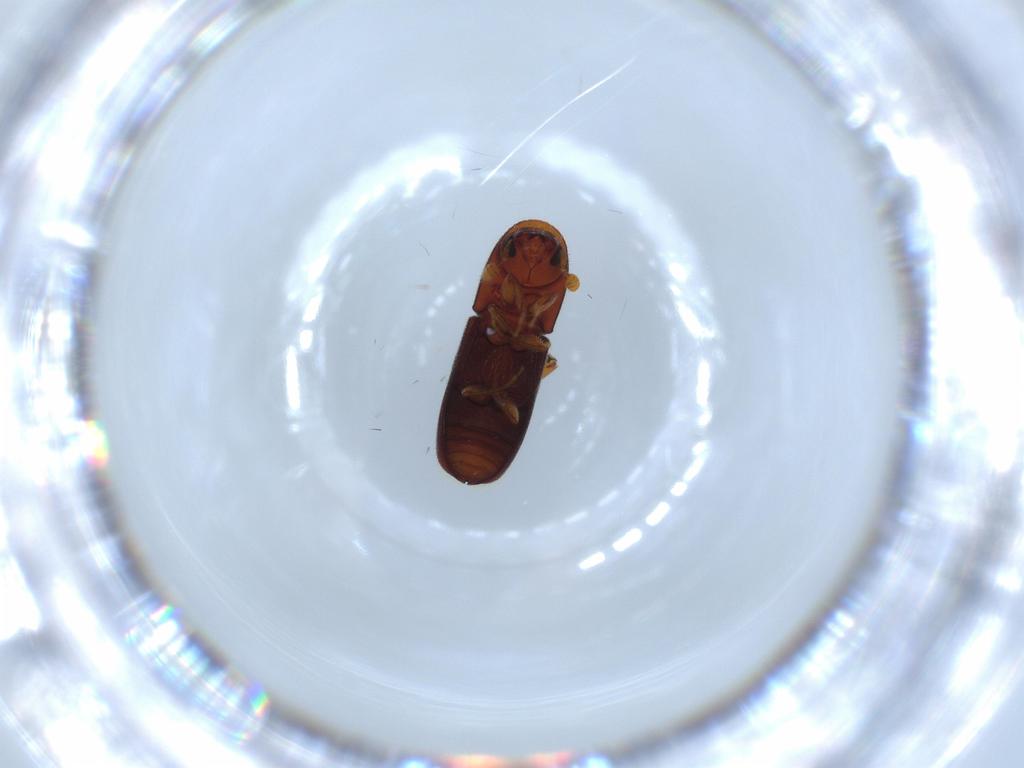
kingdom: Animalia
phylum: Arthropoda
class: Insecta
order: Coleoptera
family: Curculionidae
